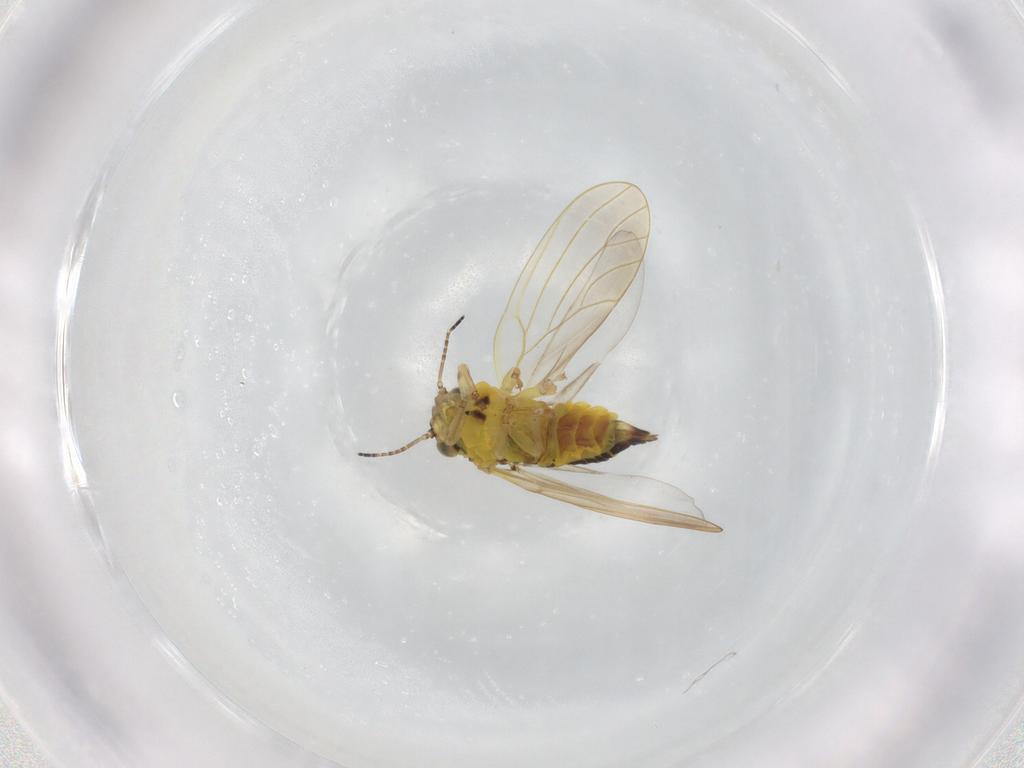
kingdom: Animalia
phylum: Arthropoda
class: Insecta
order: Hemiptera
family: Aphalaridae
